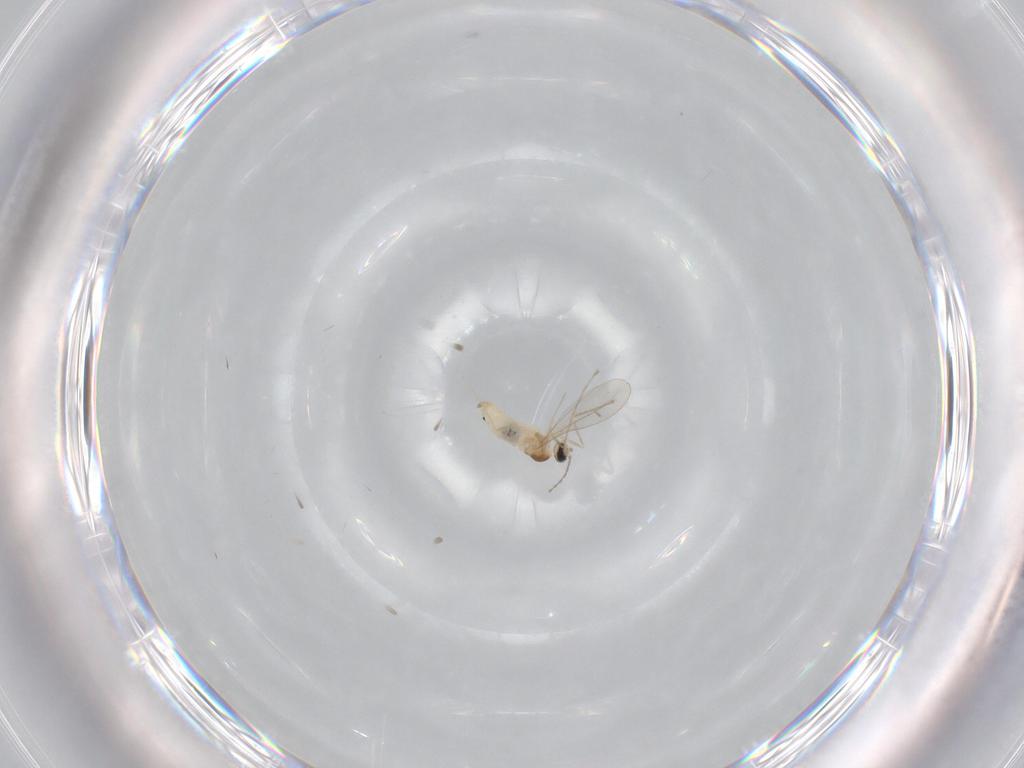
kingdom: Animalia
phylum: Arthropoda
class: Insecta
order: Diptera
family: Cecidomyiidae
